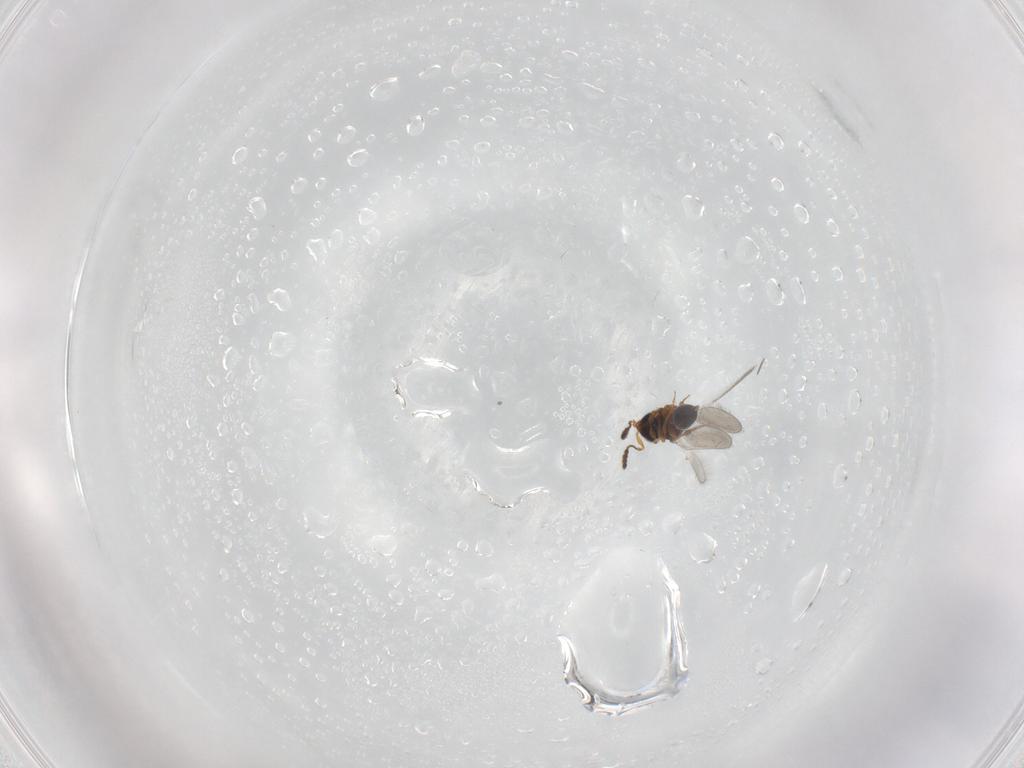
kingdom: Animalia
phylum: Arthropoda
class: Insecta
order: Hymenoptera
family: Platygastridae
